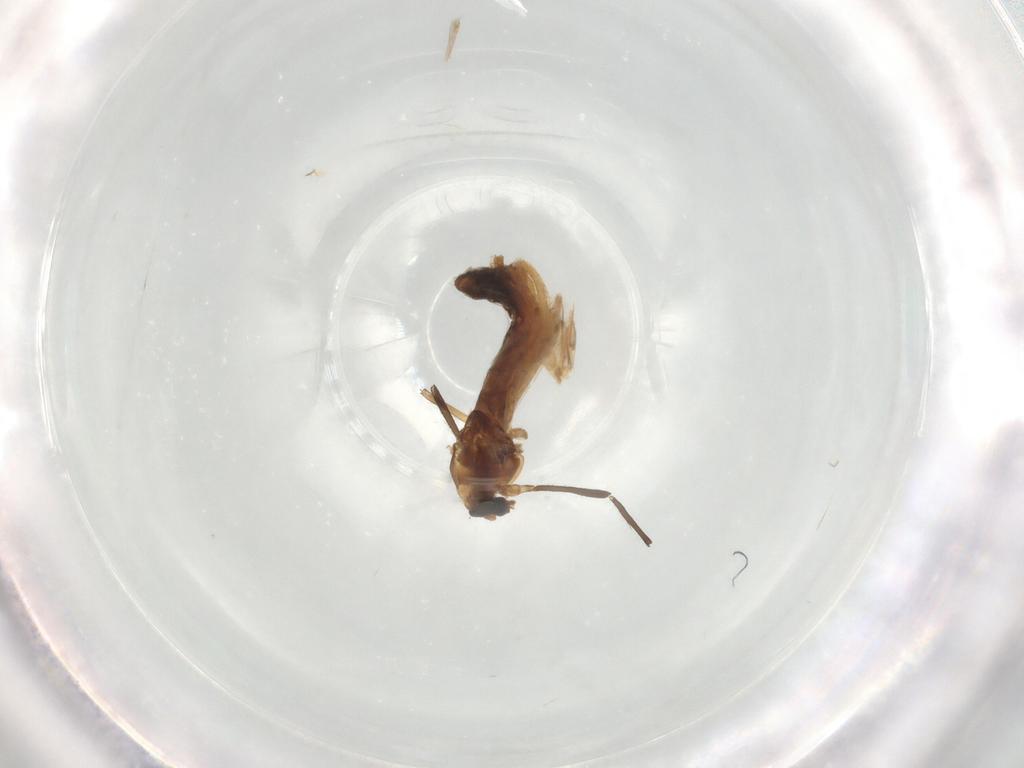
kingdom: Animalia
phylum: Arthropoda
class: Insecta
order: Diptera
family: Chironomidae
